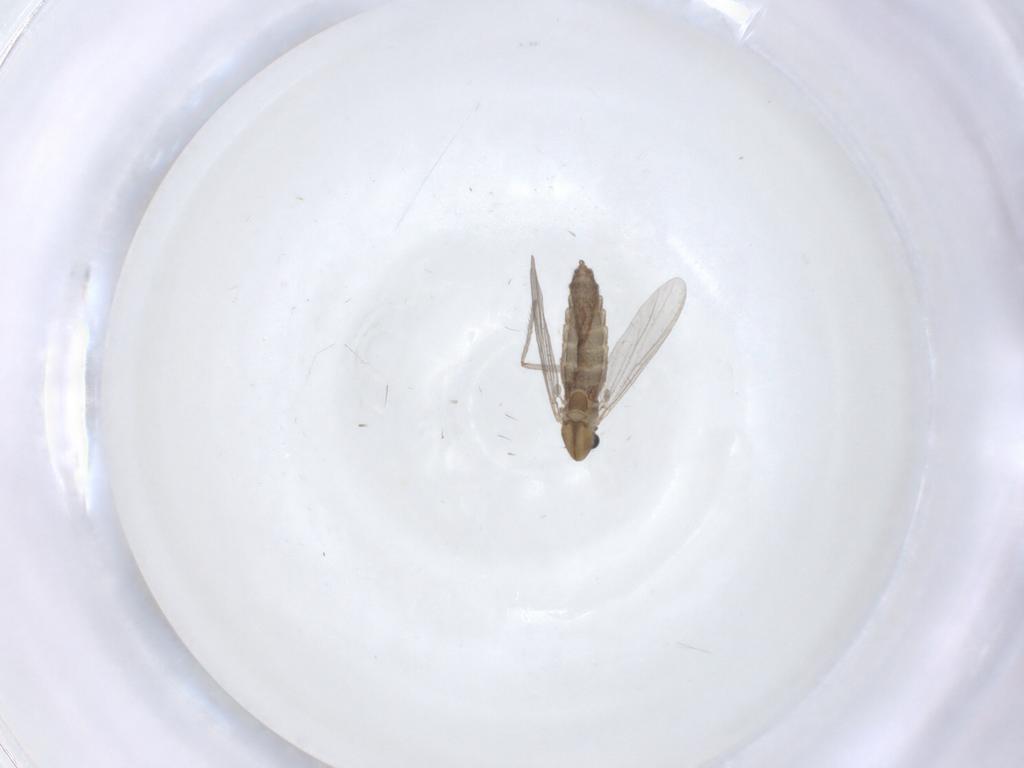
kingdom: Animalia
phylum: Arthropoda
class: Insecta
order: Diptera
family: Chironomidae
